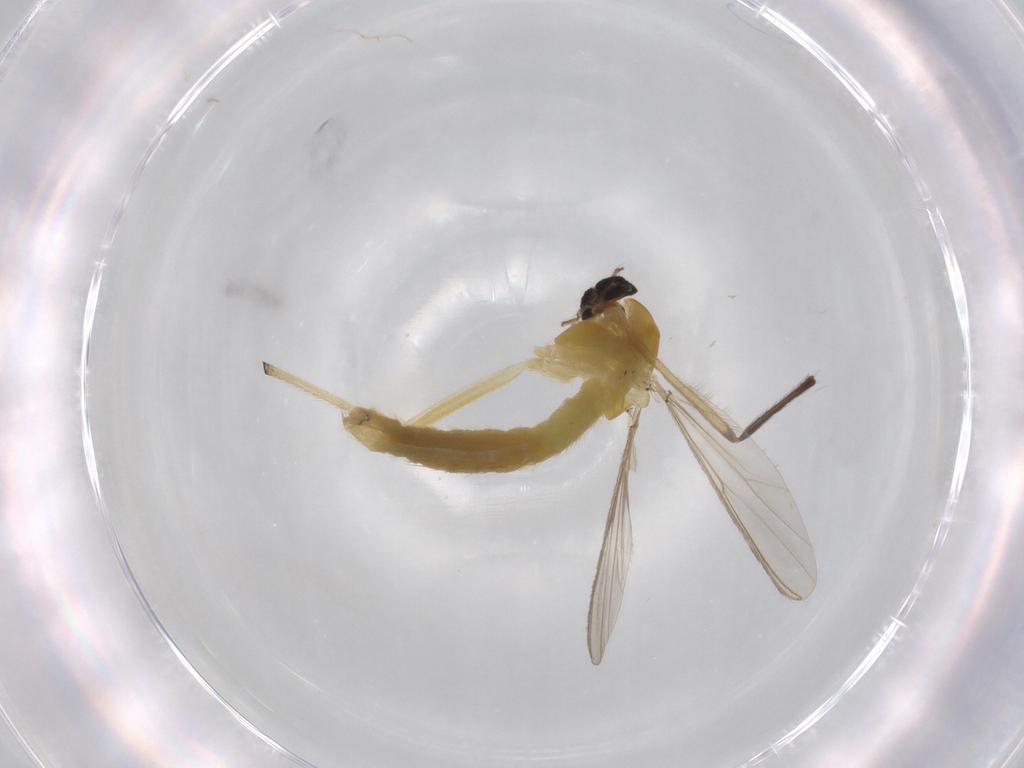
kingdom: Animalia
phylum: Arthropoda
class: Insecta
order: Diptera
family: Chironomidae
